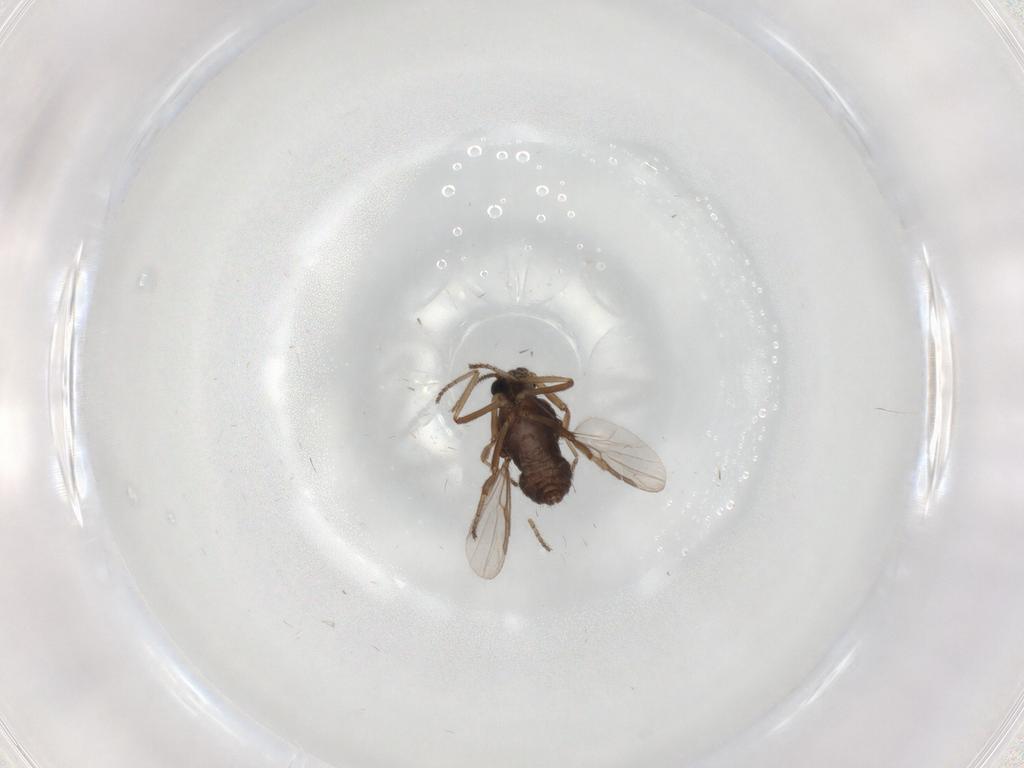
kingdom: Animalia
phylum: Arthropoda
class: Insecta
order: Diptera
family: Ceratopogonidae
